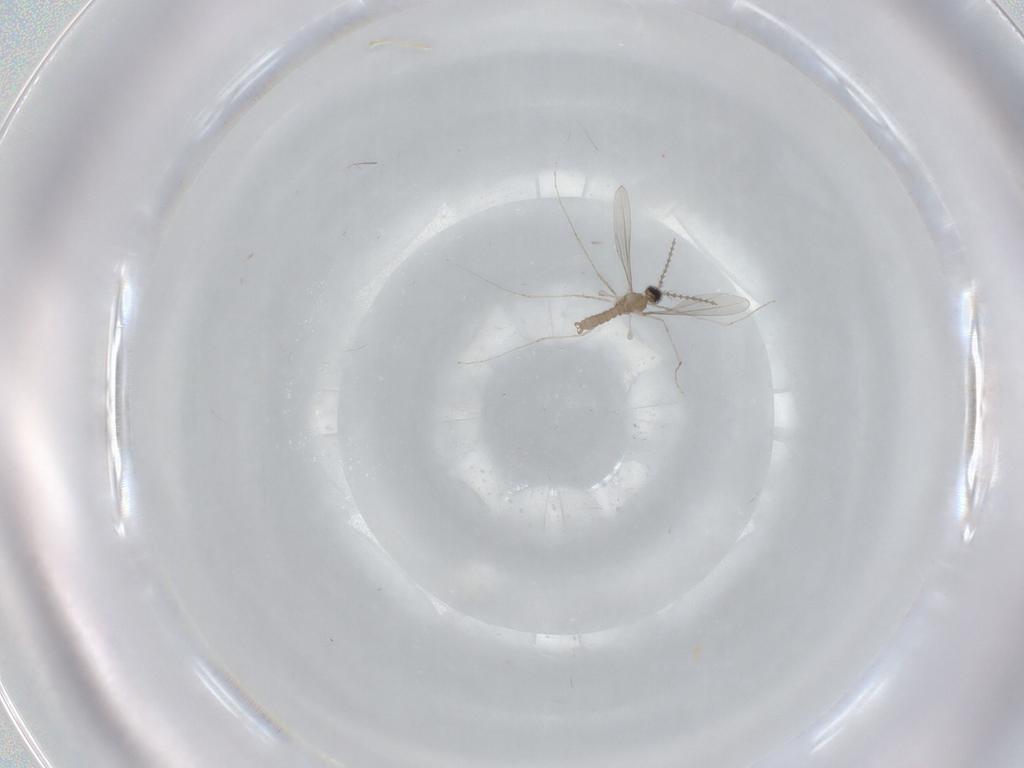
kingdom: Animalia
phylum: Arthropoda
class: Insecta
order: Diptera
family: Cecidomyiidae
